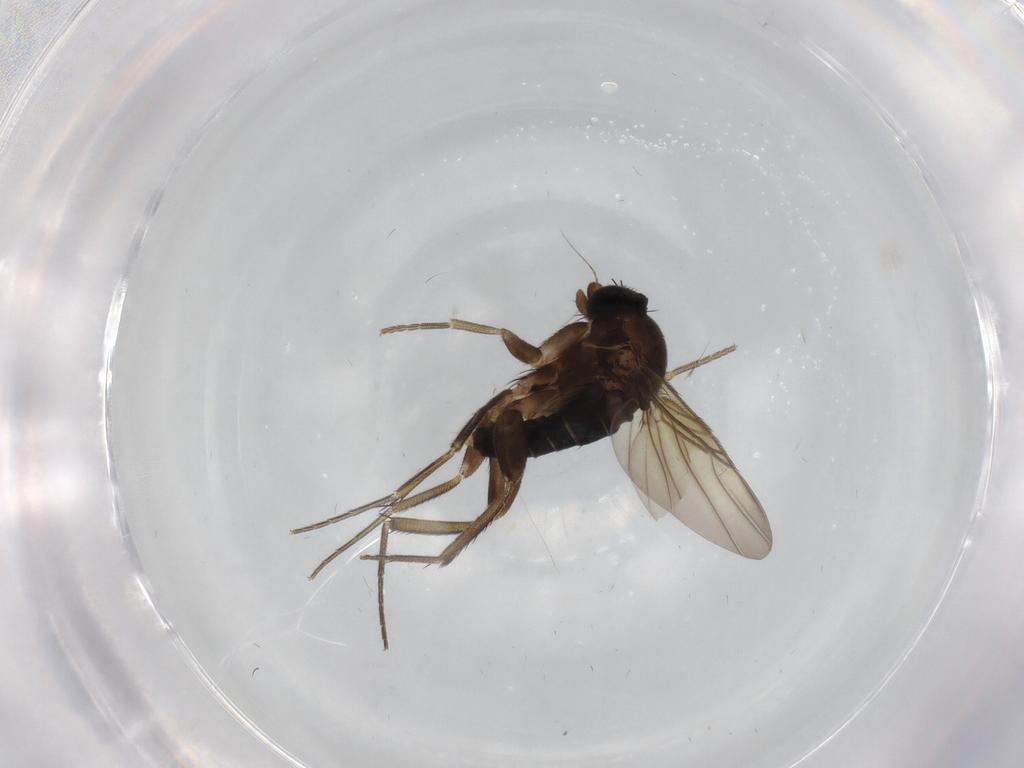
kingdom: Animalia
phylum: Arthropoda
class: Insecta
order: Diptera
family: Phoridae
